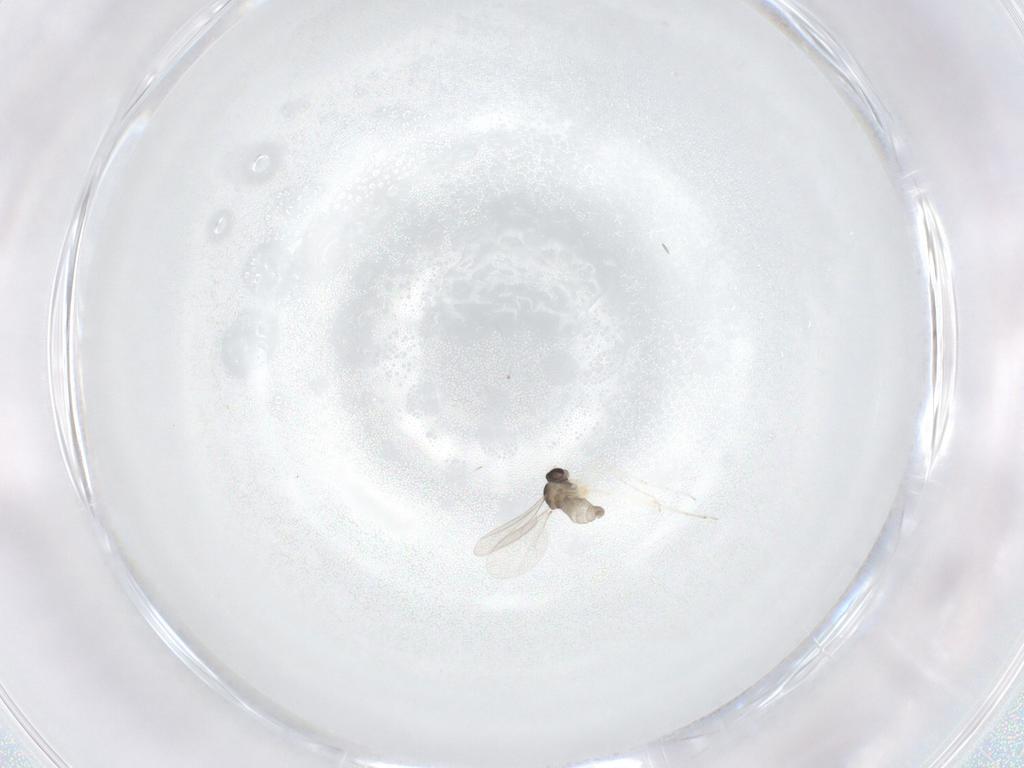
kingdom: Animalia
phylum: Arthropoda
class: Insecta
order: Diptera
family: Cecidomyiidae
